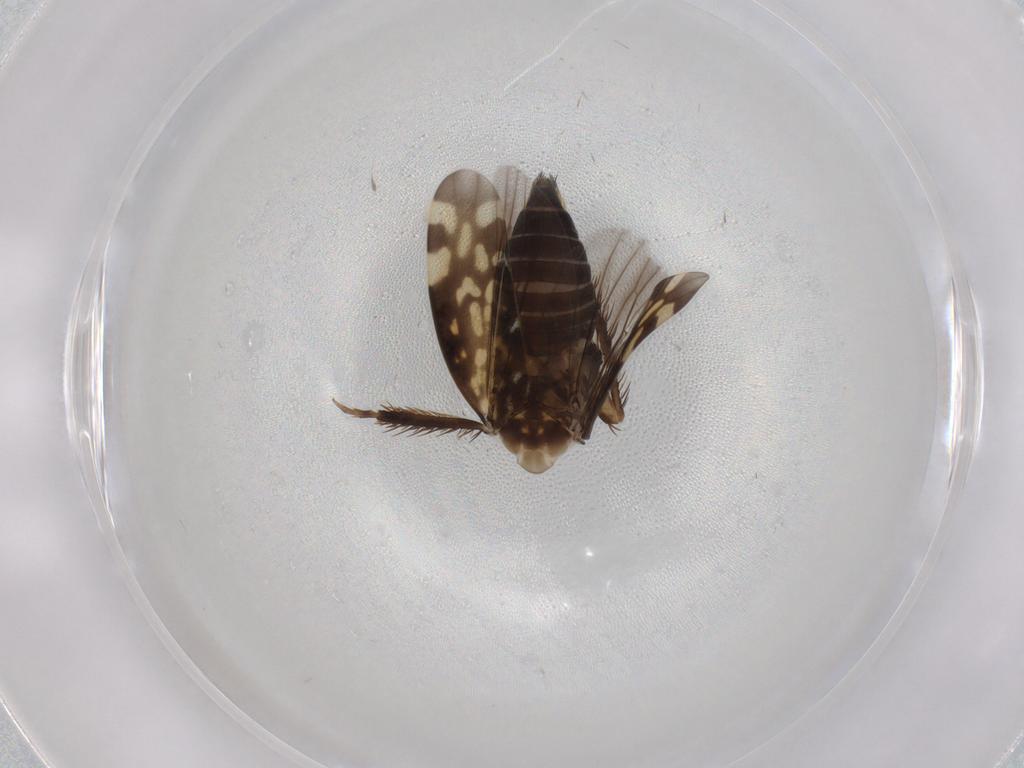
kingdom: Animalia
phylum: Arthropoda
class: Insecta
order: Hemiptera
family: Cicadellidae
